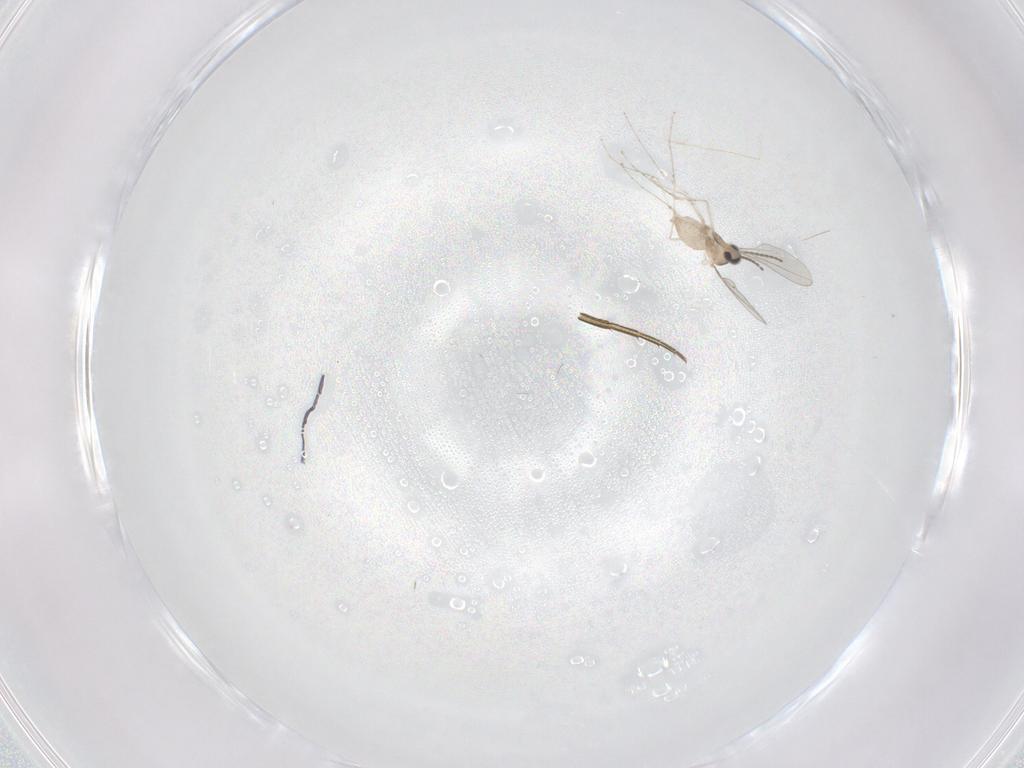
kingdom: Animalia
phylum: Arthropoda
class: Insecta
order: Diptera
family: Cecidomyiidae
